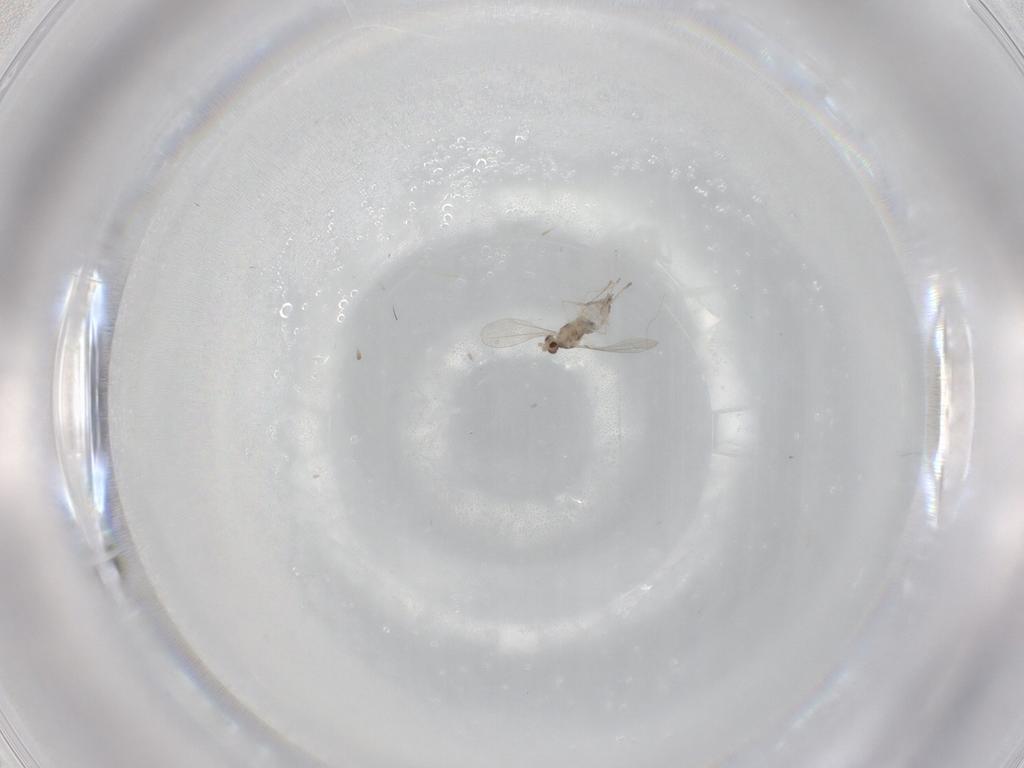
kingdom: Animalia
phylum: Arthropoda
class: Insecta
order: Diptera
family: Cecidomyiidae
